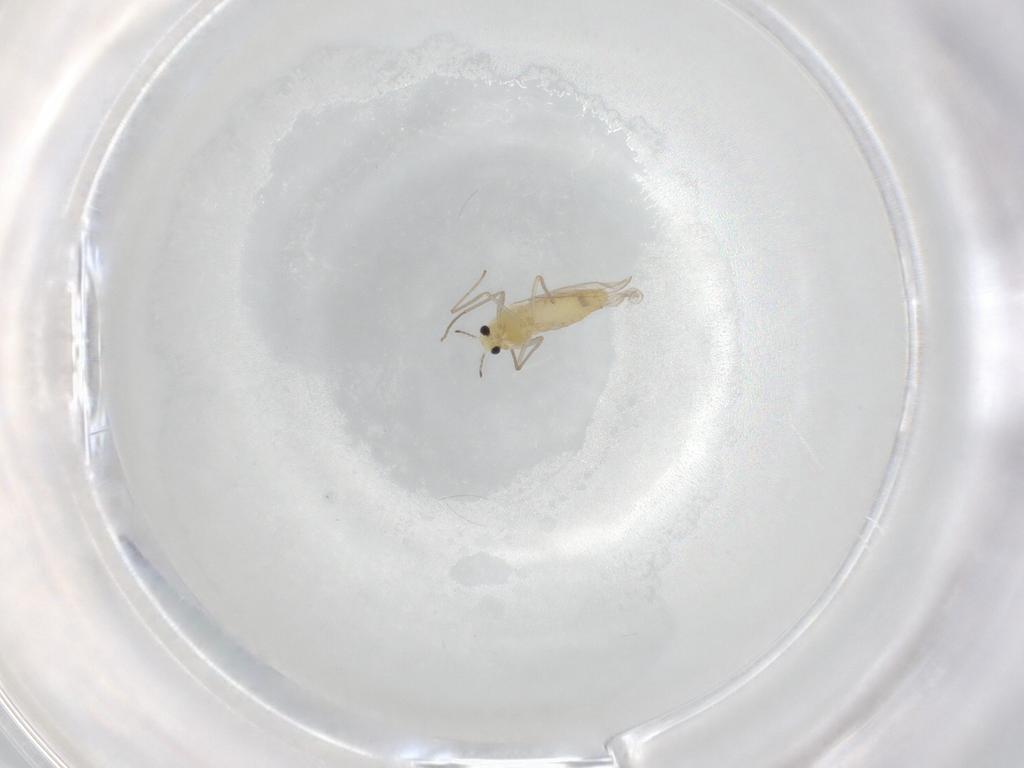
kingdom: Animalia
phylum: Arthropoda
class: Insecta
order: Diptera
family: Chironomidae
